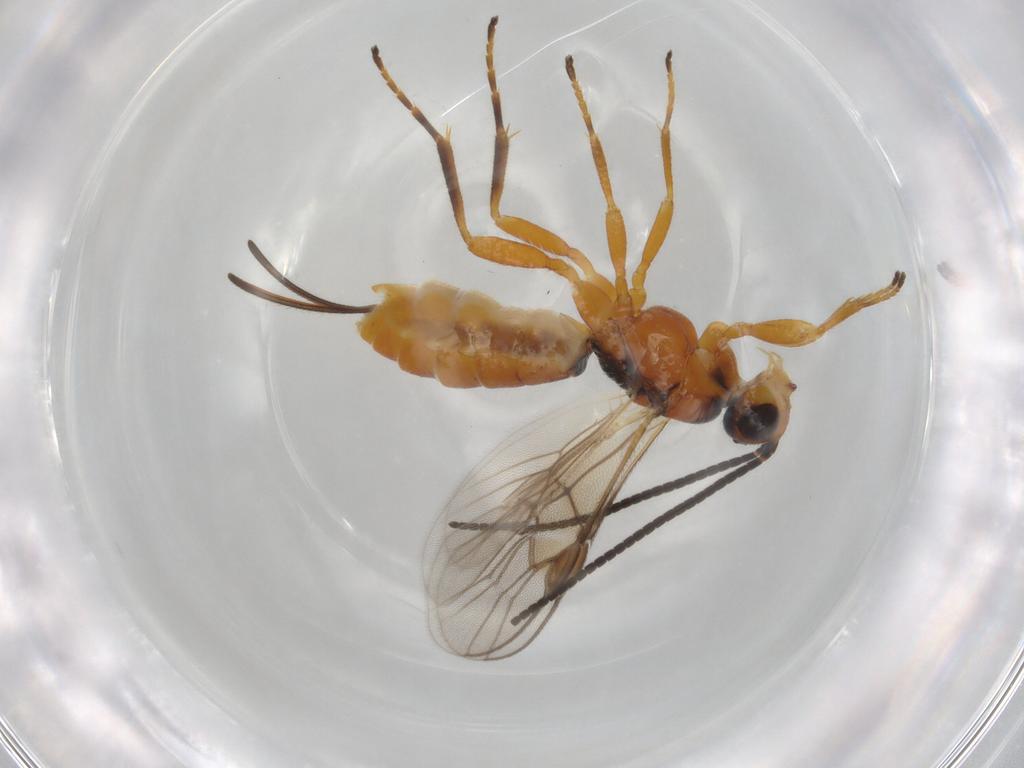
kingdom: Animalia
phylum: Arthropoda
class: Insecta
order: Hymenoptera
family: Braconidae
